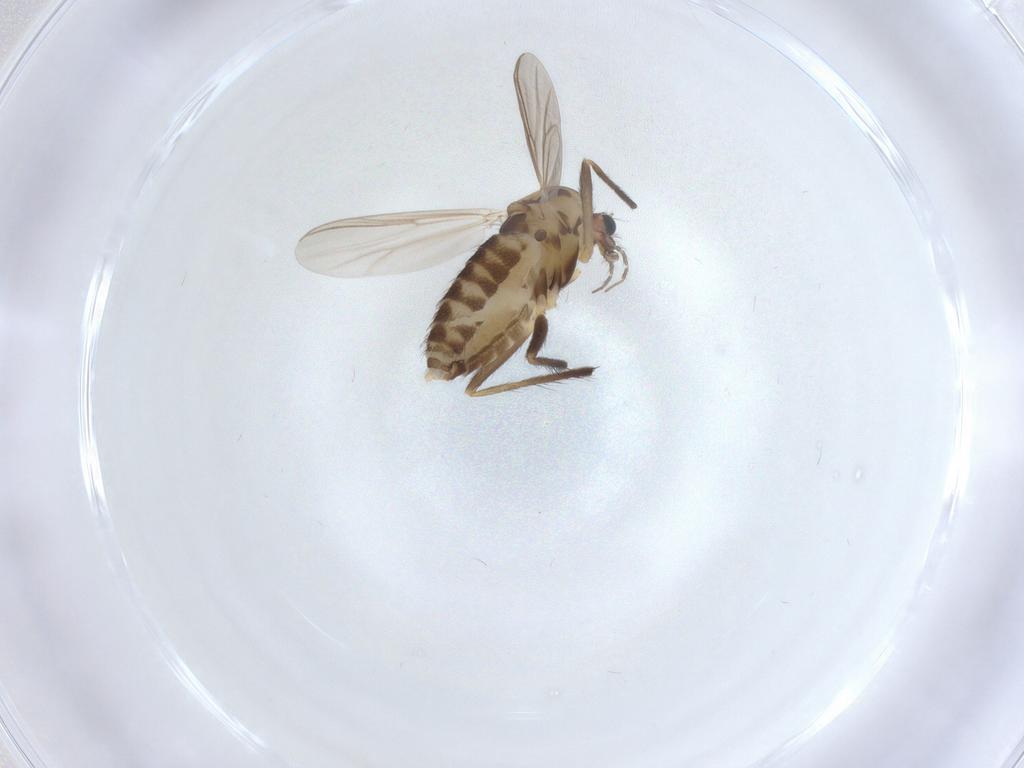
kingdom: Animalia
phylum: Arthropoda
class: Insecta
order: Diptera
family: Chironomidae
